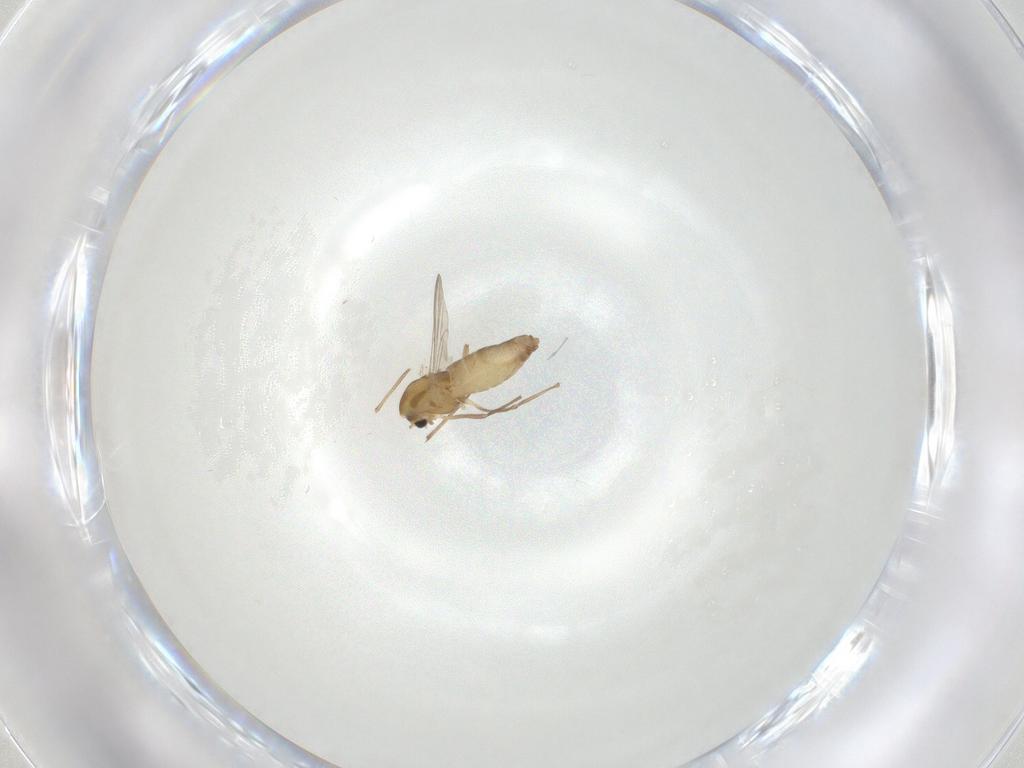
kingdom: Animalia
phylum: Arthropoda
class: Insecta
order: Diptera
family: Chironomidae
